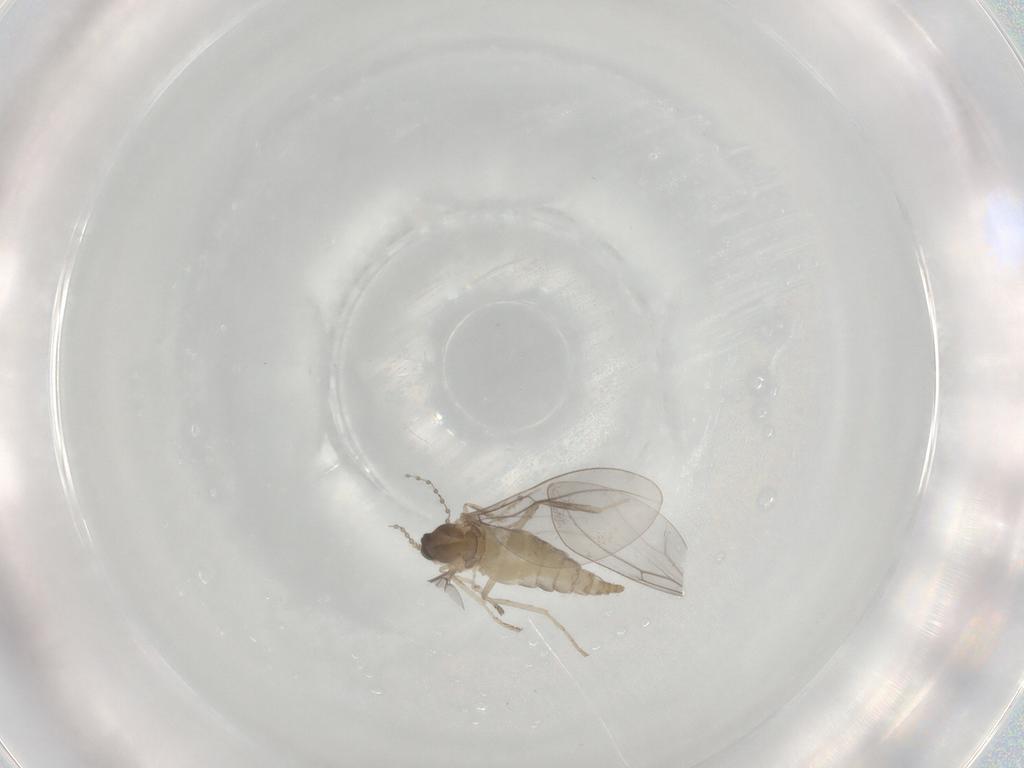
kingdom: Animalia
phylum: Arthropoda
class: Insecta
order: Diptera
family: Cecidomyiidae
